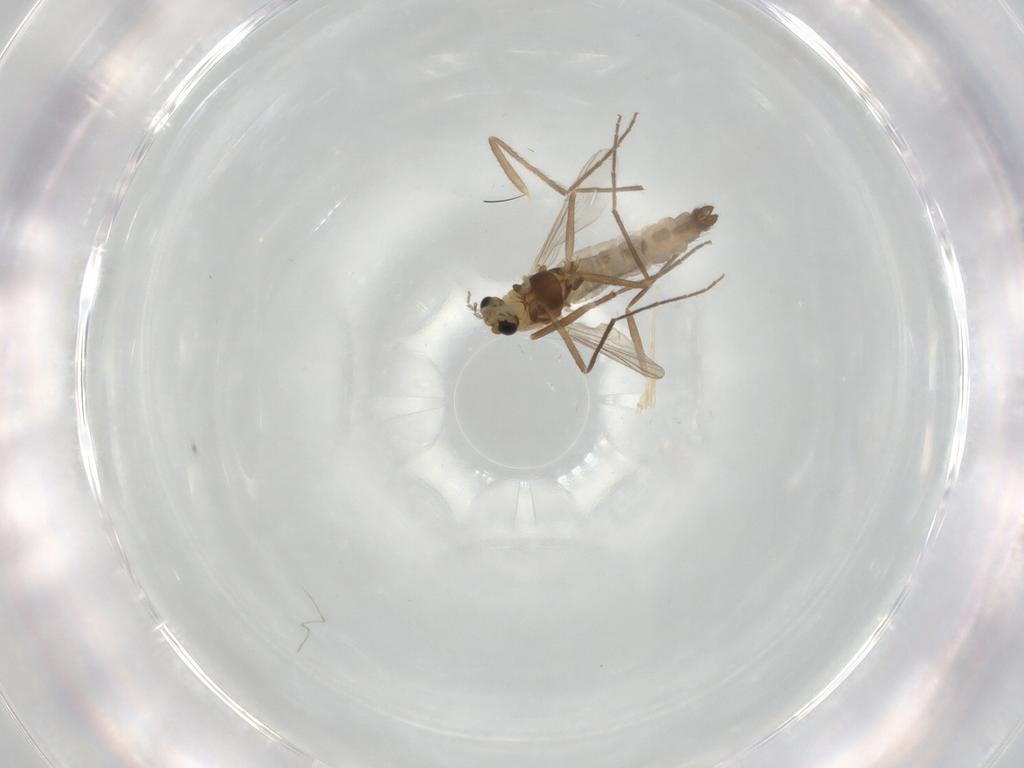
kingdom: Animalia
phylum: Arthropoda
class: Insecta
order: Diptera
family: Chironomidae
